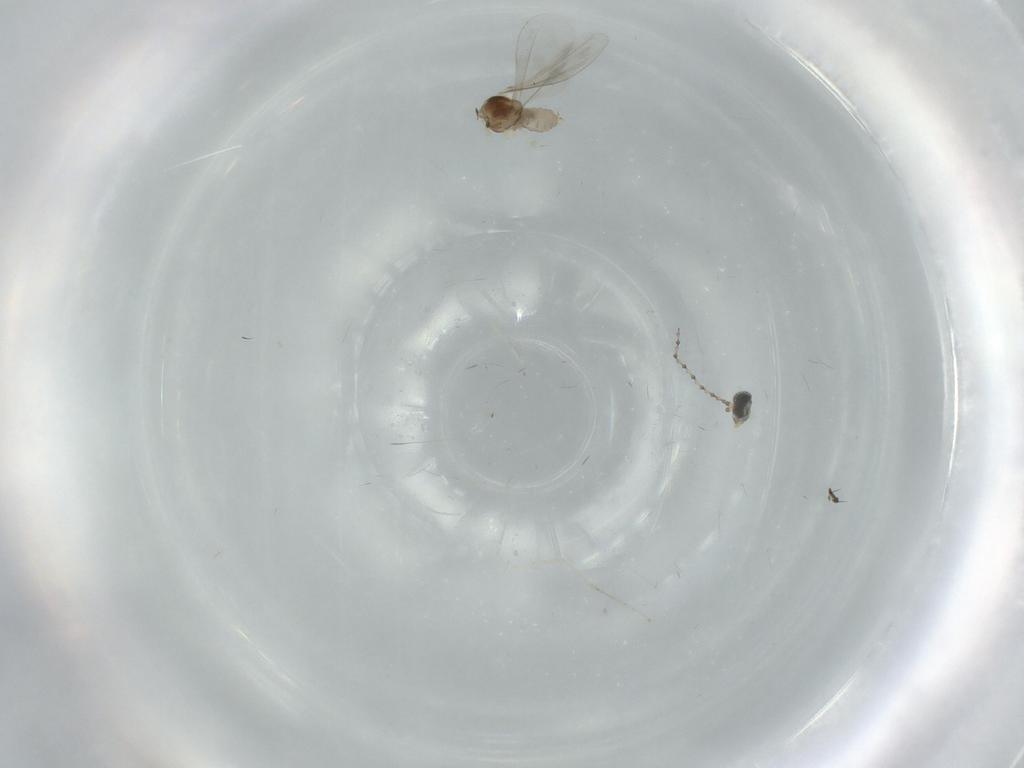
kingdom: Animalia
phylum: Arthropoda
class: Insecta
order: Diptera
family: Cecidomyiidae
